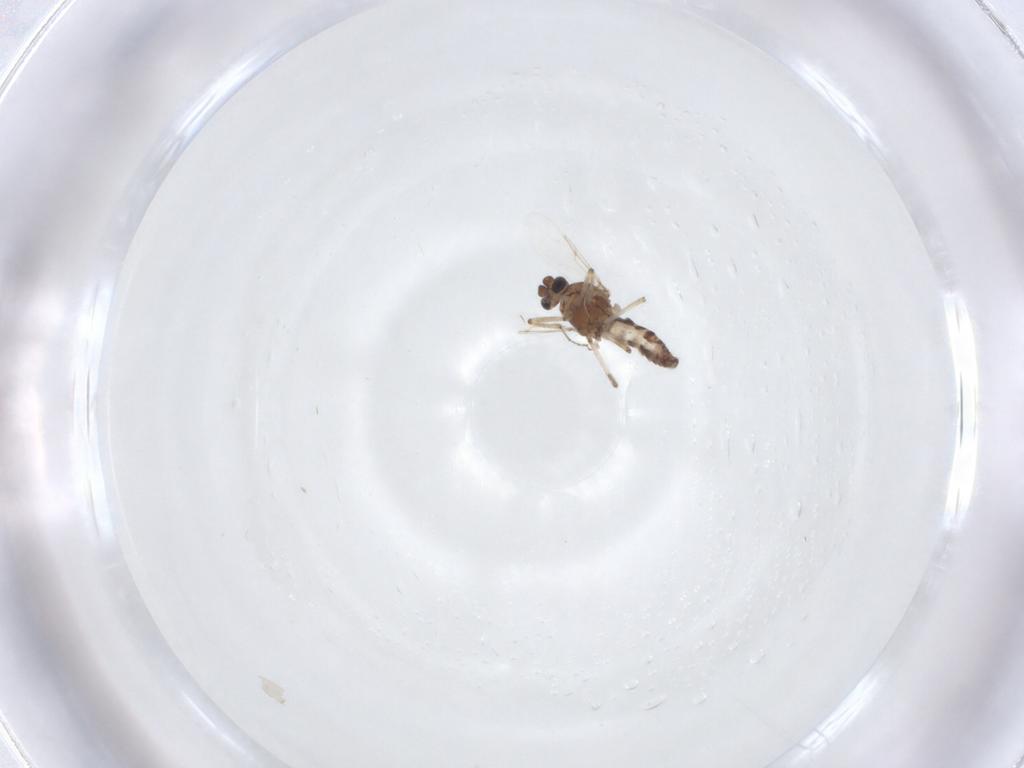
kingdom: Animalia
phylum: Arthropoda
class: Insecta
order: Diptera
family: Ceratopogonidae
